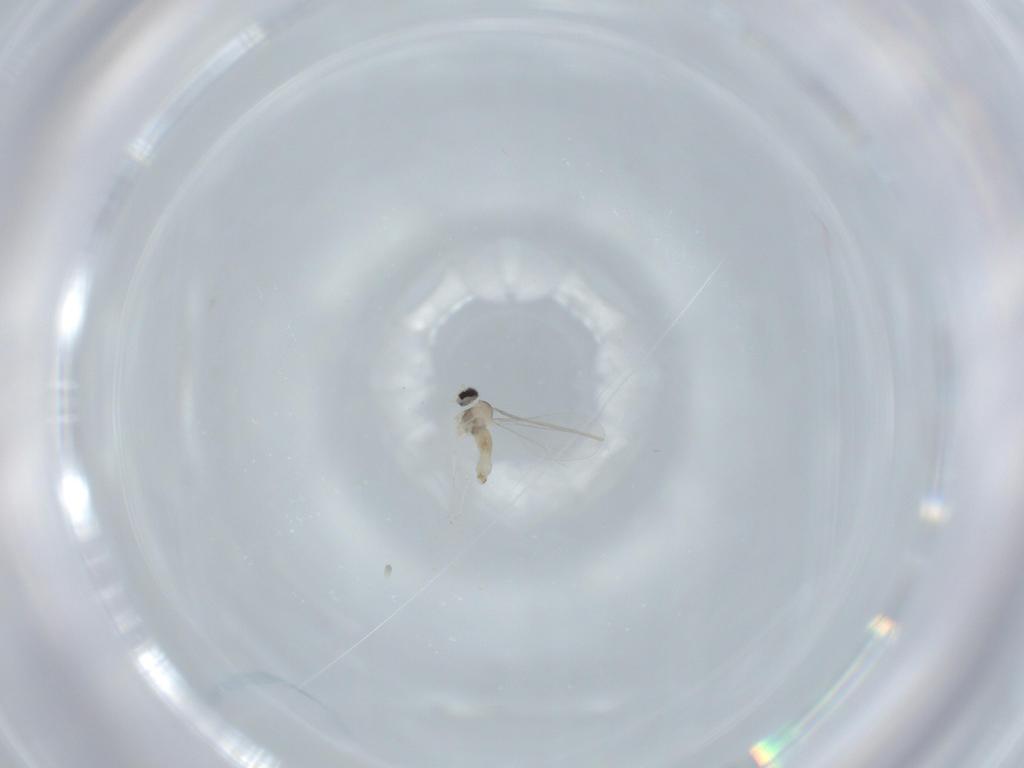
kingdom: Animalia
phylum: Arthropoda
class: Insecta
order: Diptera
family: Chironomidae
